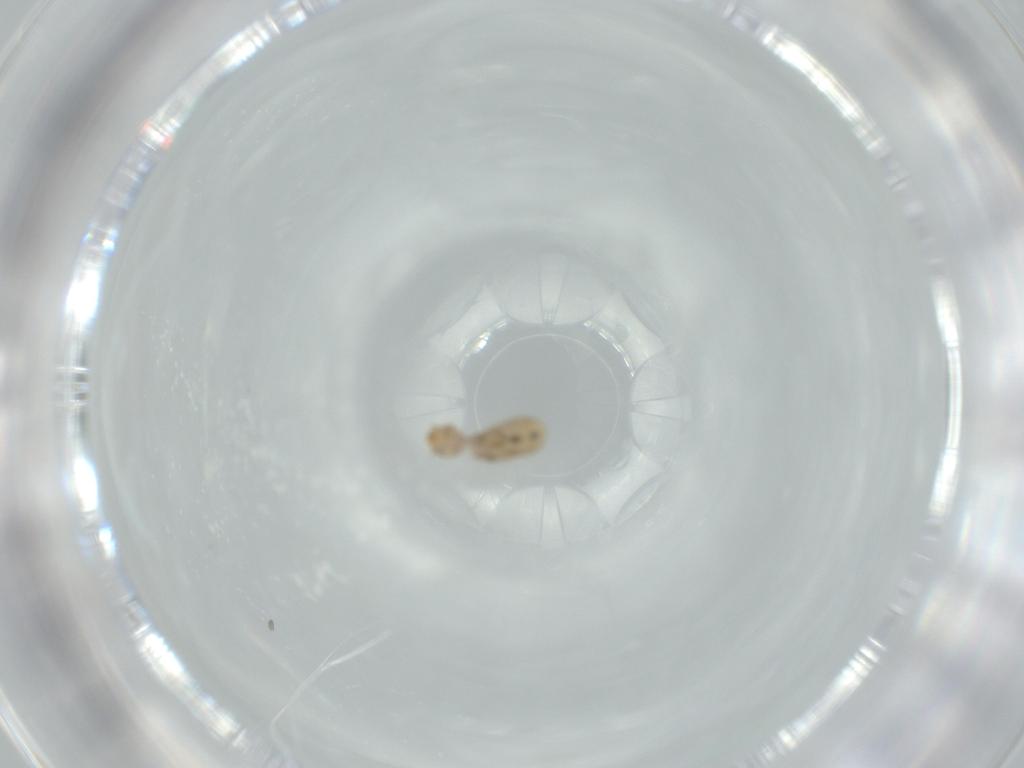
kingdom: Animalia
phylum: Arthropoda
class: Insecta
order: Psocodea
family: Liposcelididae
